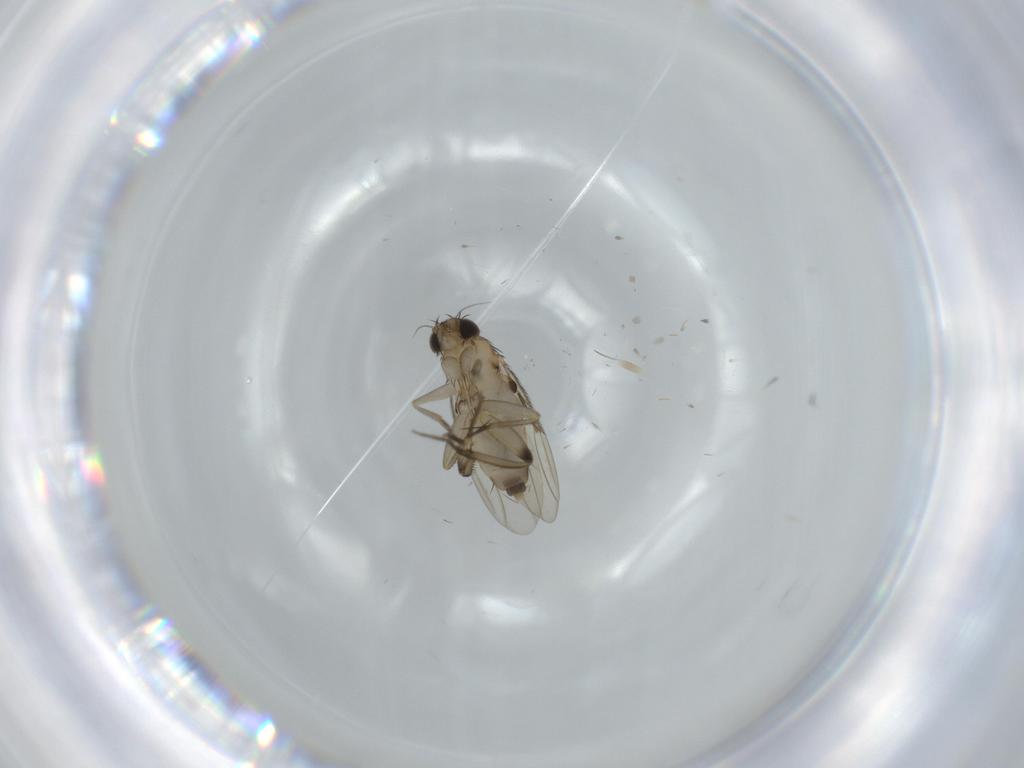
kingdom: Animalia
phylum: Arthropoda
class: Insecta
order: Diptera
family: Phoridae
